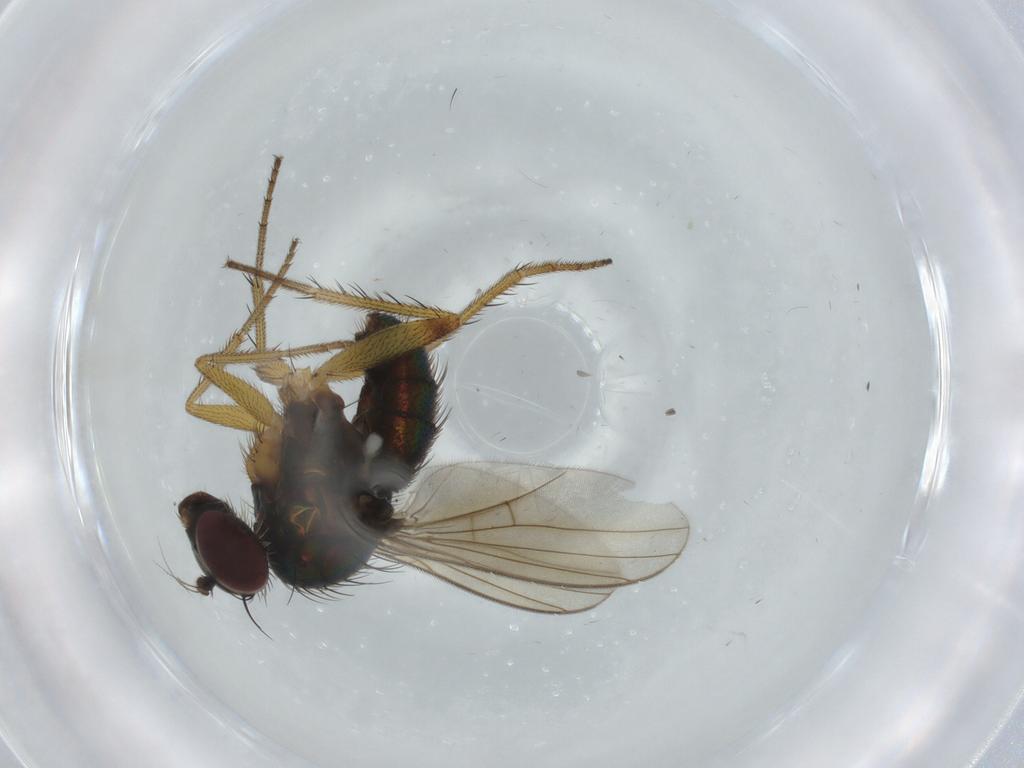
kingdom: Animalia
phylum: Arthropoda
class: Insecta
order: Diptera
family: Dolichopodidae
